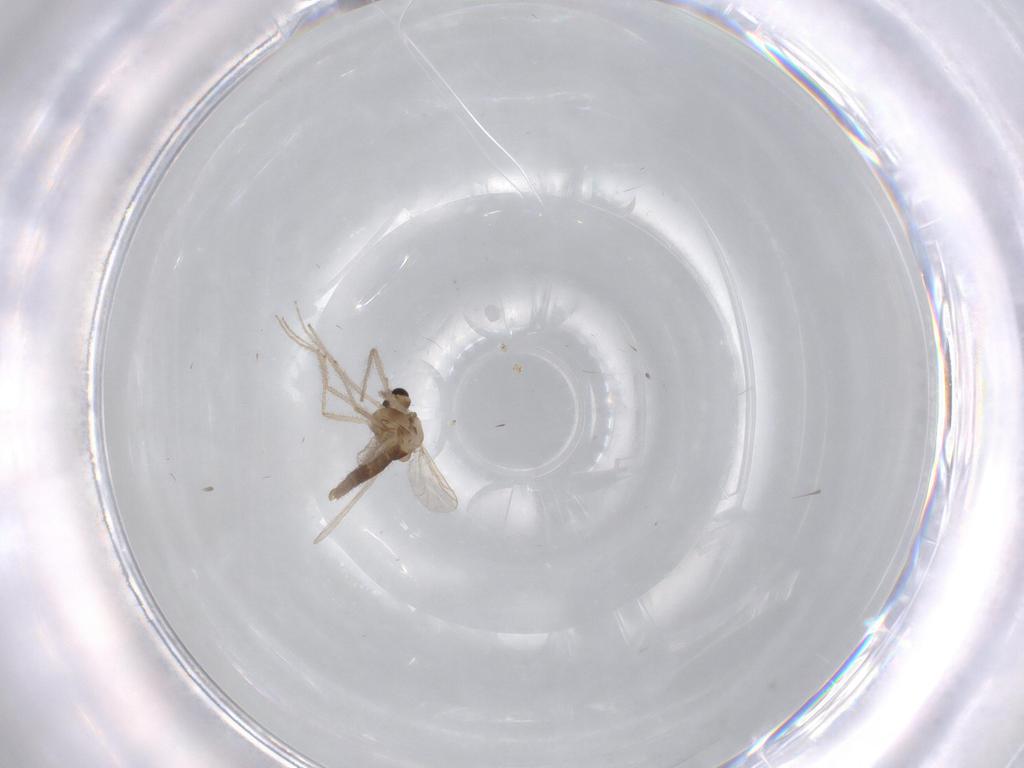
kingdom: Animalia
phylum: Arthropoda
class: Insecta
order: Diptera
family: Chironomidae
